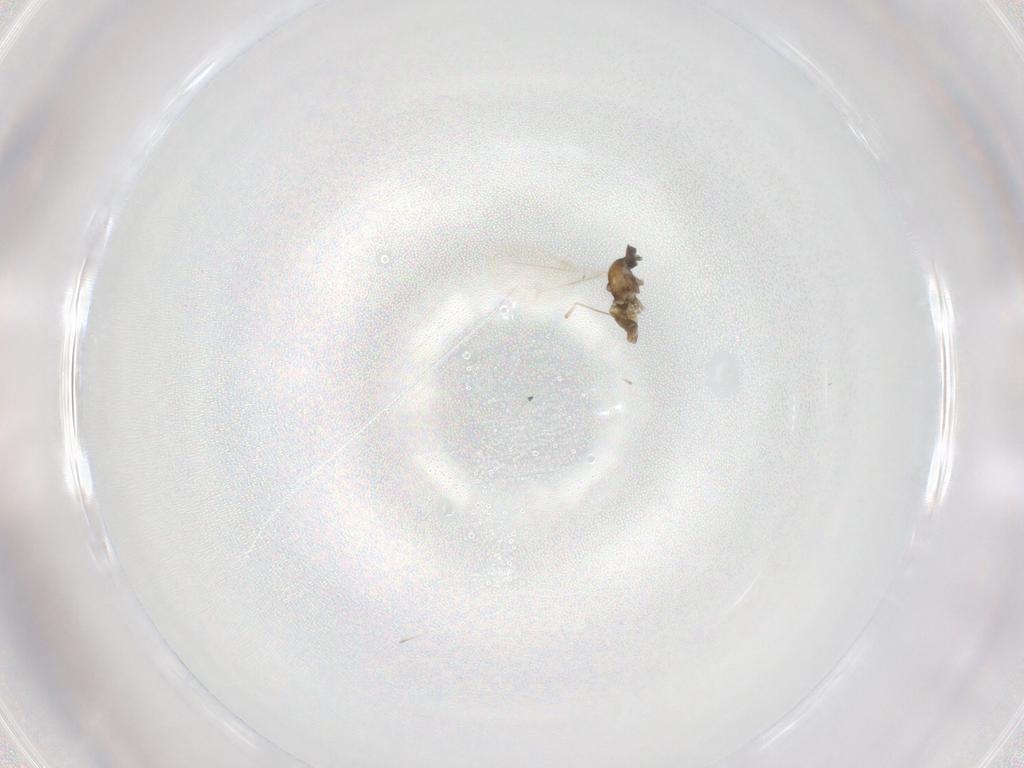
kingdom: Animalia
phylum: Arthropoda
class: Insecta
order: Diptera
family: Cecidomyiidae
